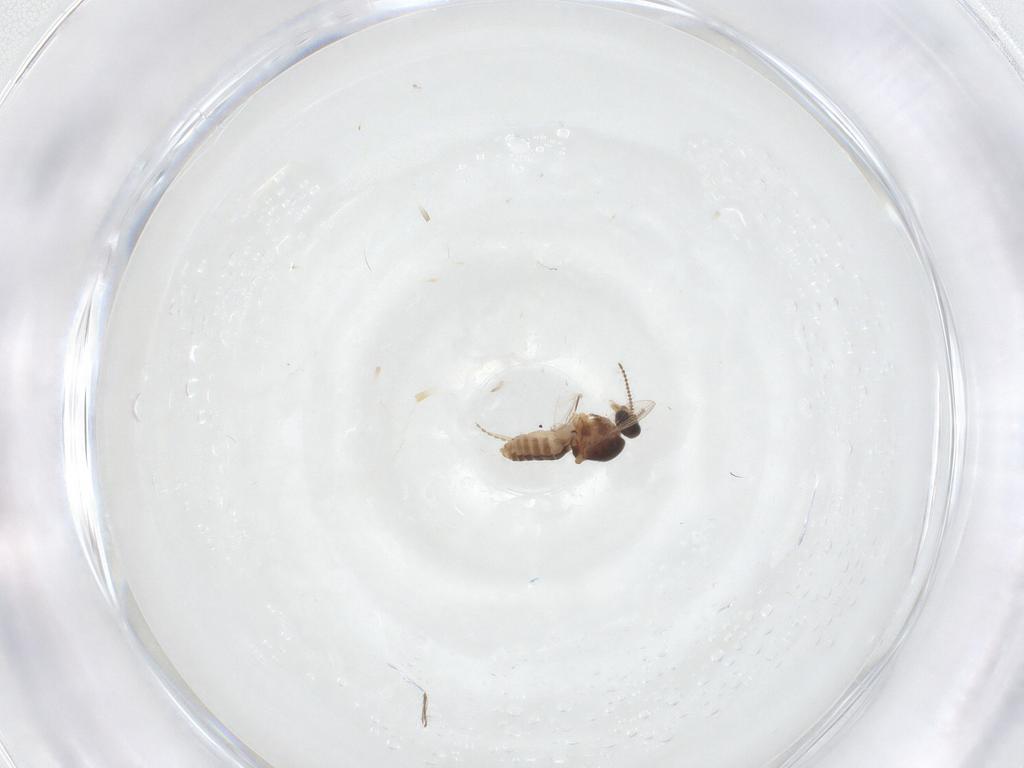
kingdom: Animalia
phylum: Arthropoda
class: Insecta
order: Diptera
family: Ceratopogonidae
